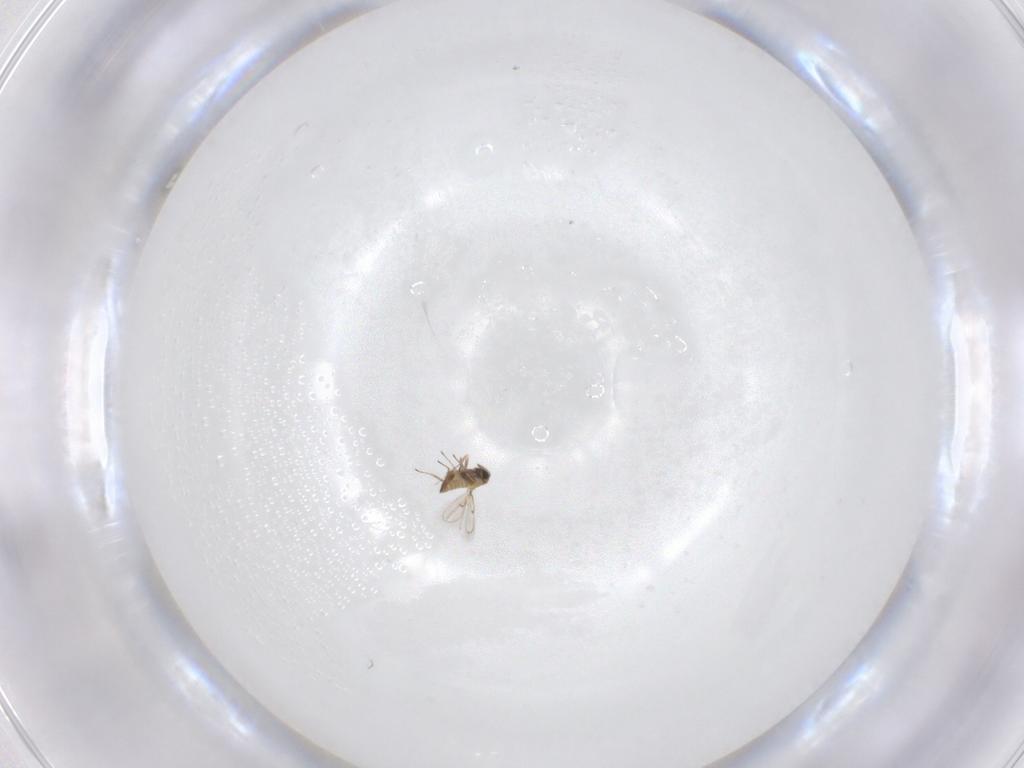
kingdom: Animalia
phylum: Arthropoda
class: Insecta
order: Hymenoptera
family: Trichogrammatidae
